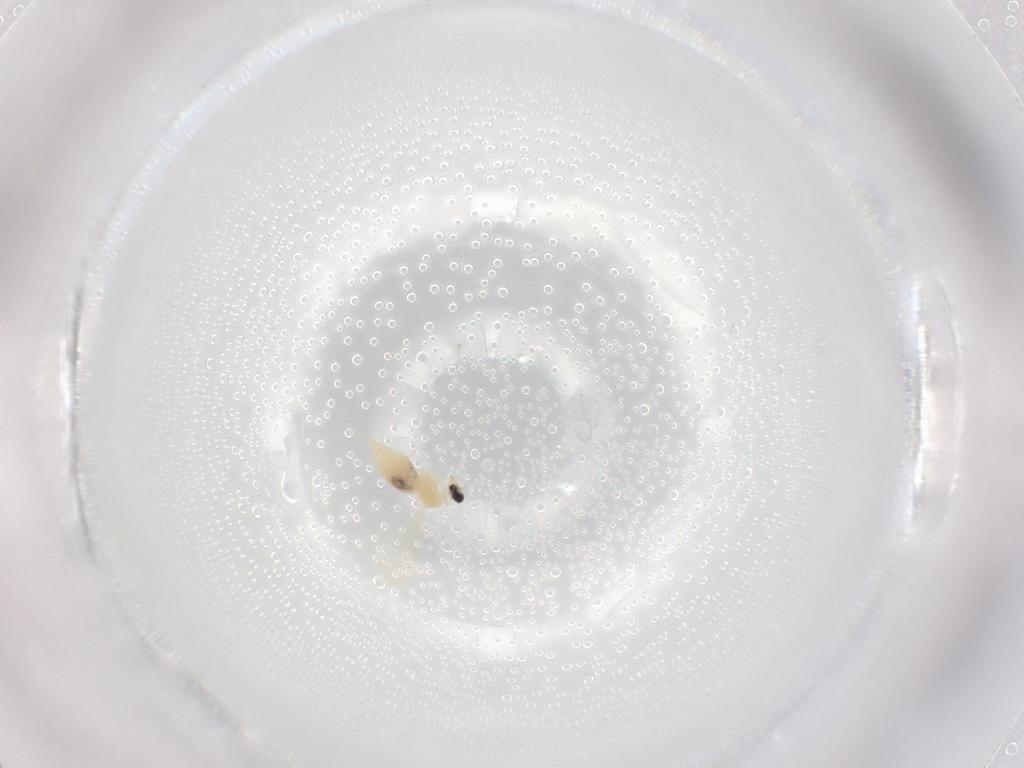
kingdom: Animalia
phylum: Arthropoda
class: Insecta
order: Diptera
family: Cecidomyiidae
